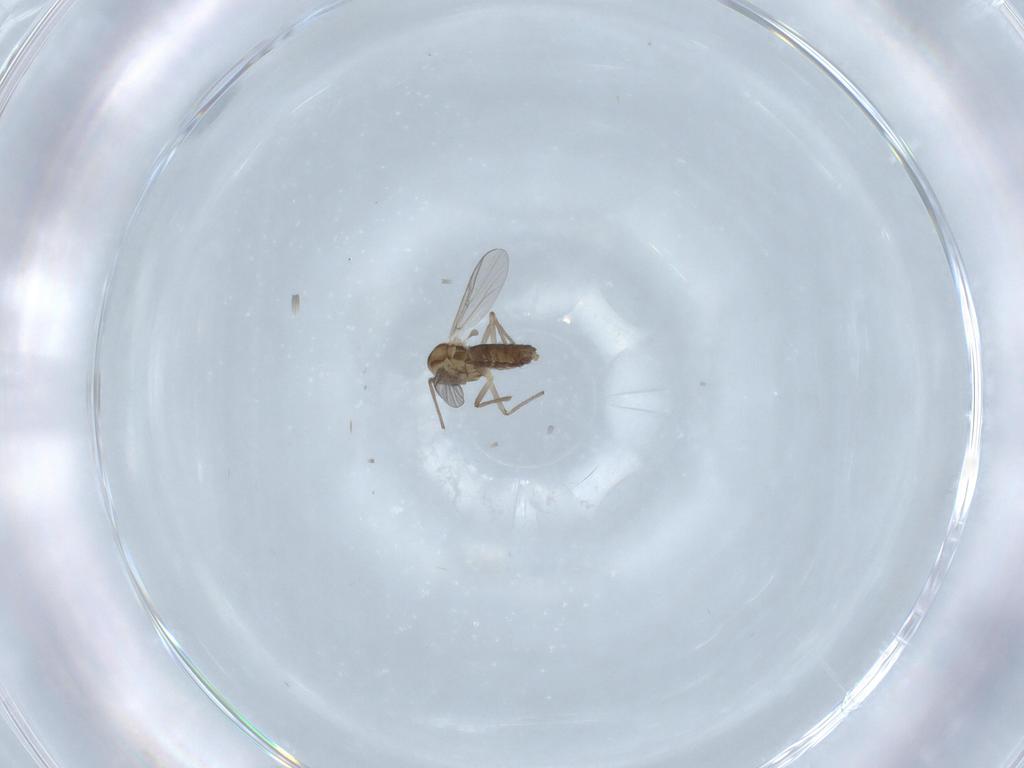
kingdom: Animalia
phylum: Arthropoda
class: Insecta
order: Diptera
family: Chironomidae
